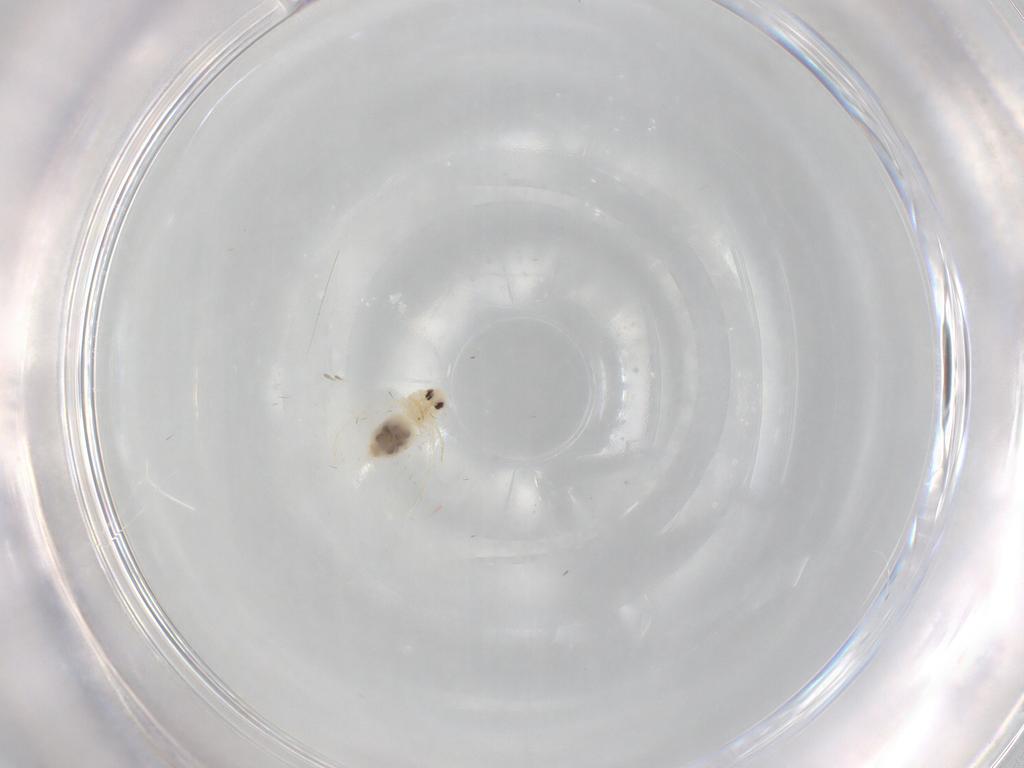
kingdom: Animalia
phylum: Arthropoda
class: Insecta
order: Hemiptera
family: Aleyrodidae
